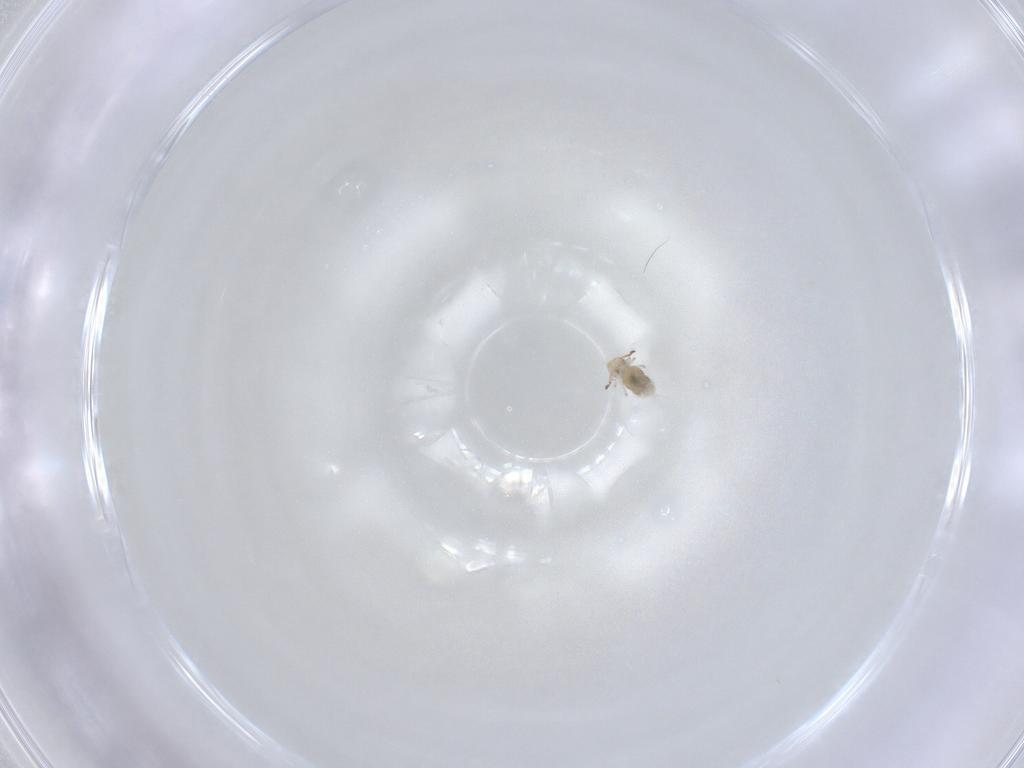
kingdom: Animalia
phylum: Arthropoda
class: Collembola
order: Symphypleona
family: Bourletiellidae
